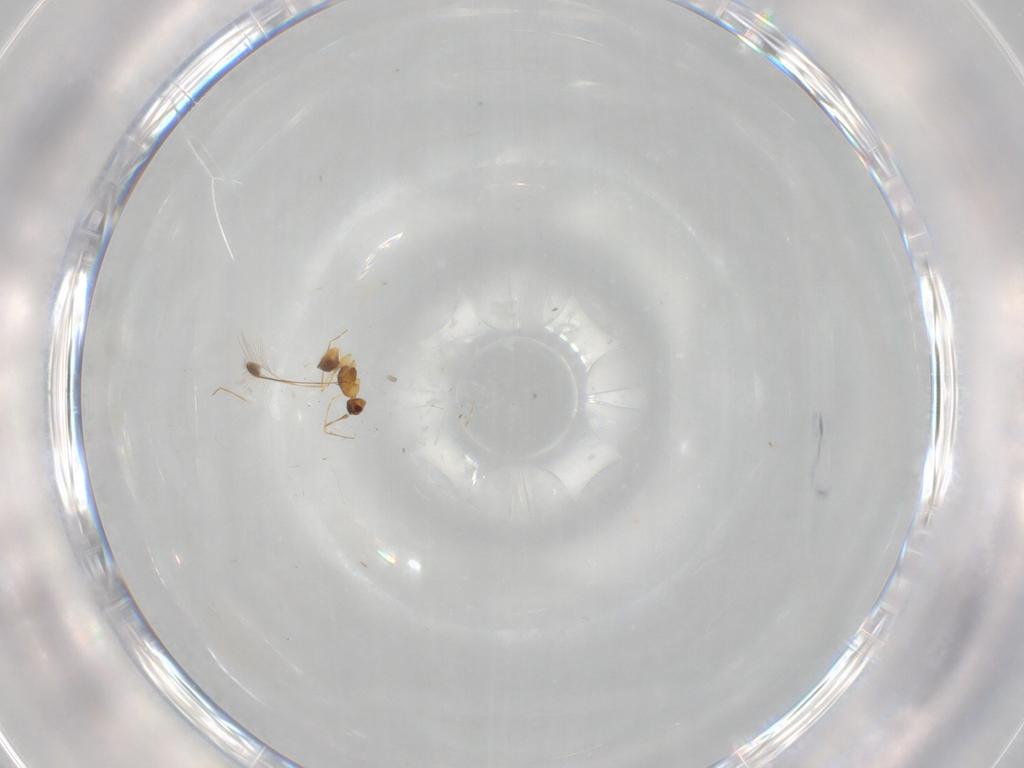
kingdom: Animalia
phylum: Arthropoda
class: Insecta
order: Hymenoptera
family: Mymaridae
